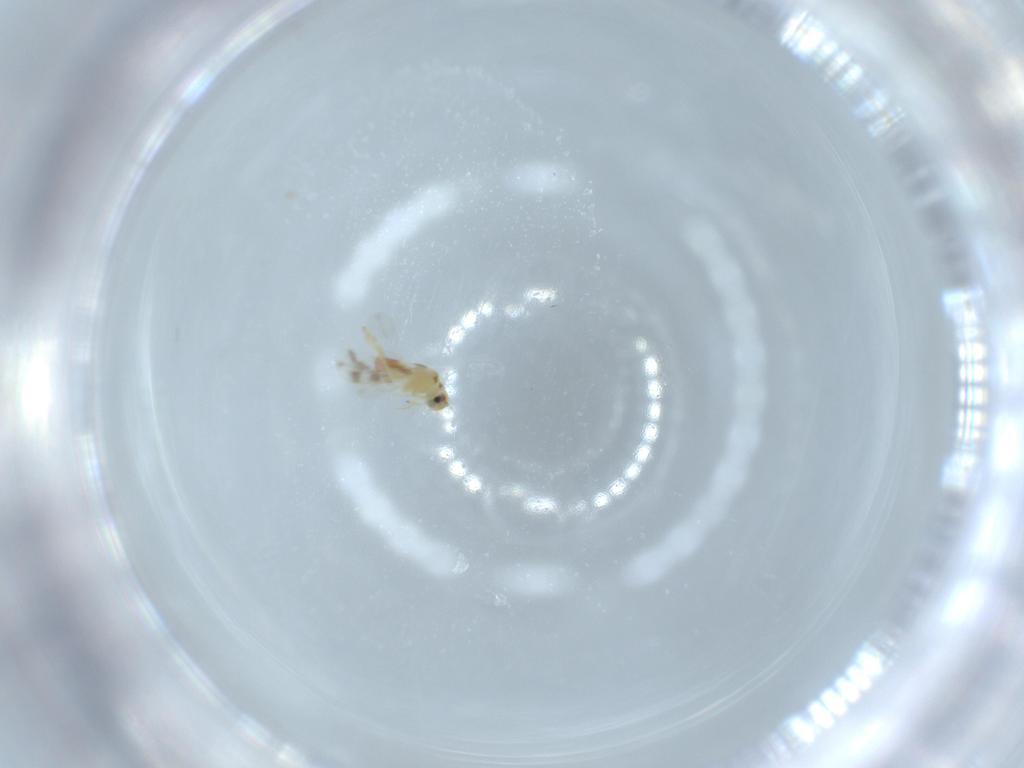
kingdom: Animalia
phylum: Arthropoda
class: Insecta
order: Hemiptera
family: Aleyrodidae
